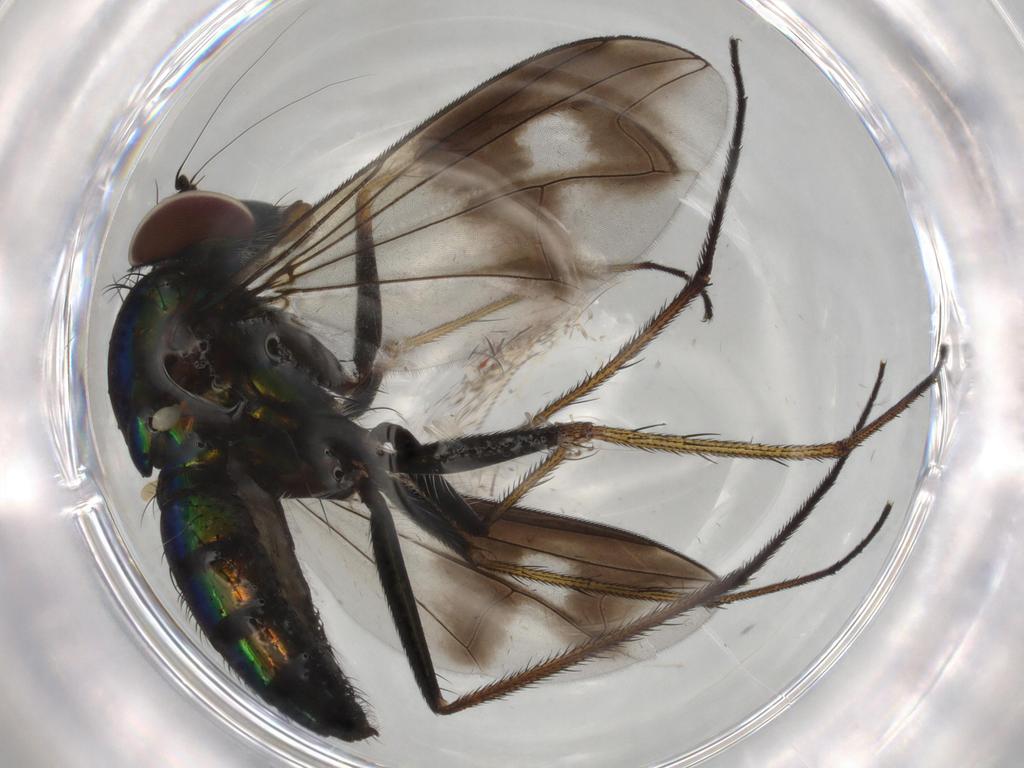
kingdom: Animalia
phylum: Arthropoda
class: Insecta
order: Diptera
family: Dolichopodidae
